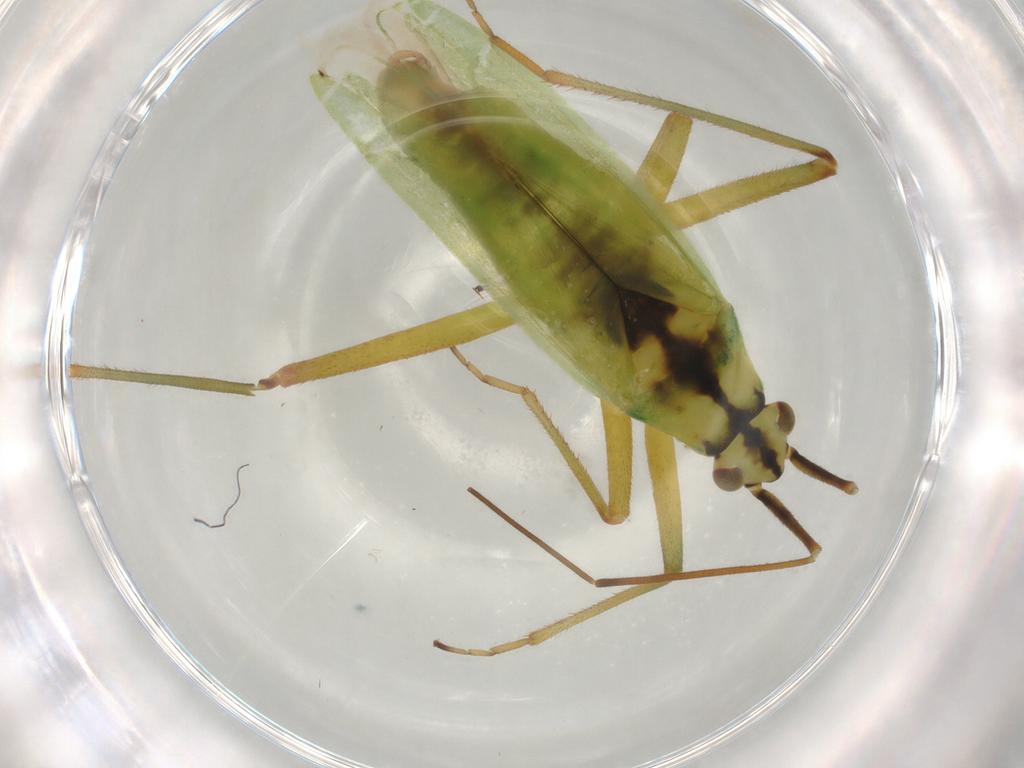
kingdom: Animalia
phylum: Arthropoda
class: Insecta
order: Hemiptera
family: Miridae
